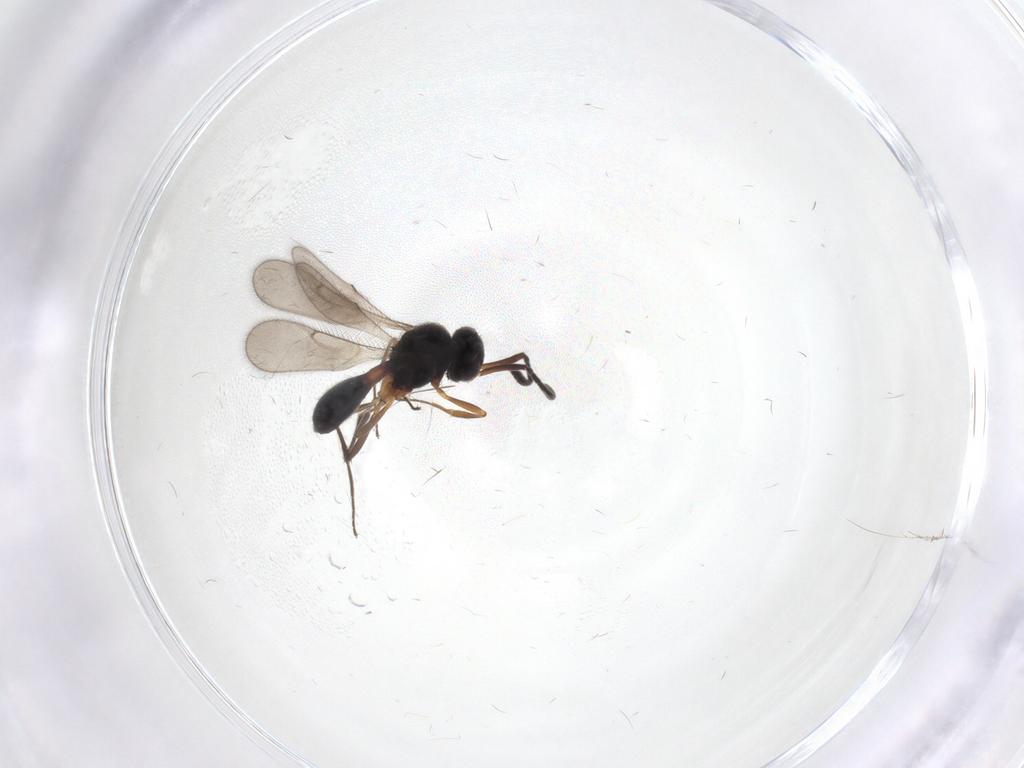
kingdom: Animalia
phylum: Arthropoda
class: Insecta
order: Hymenoptera
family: Scelionidae
